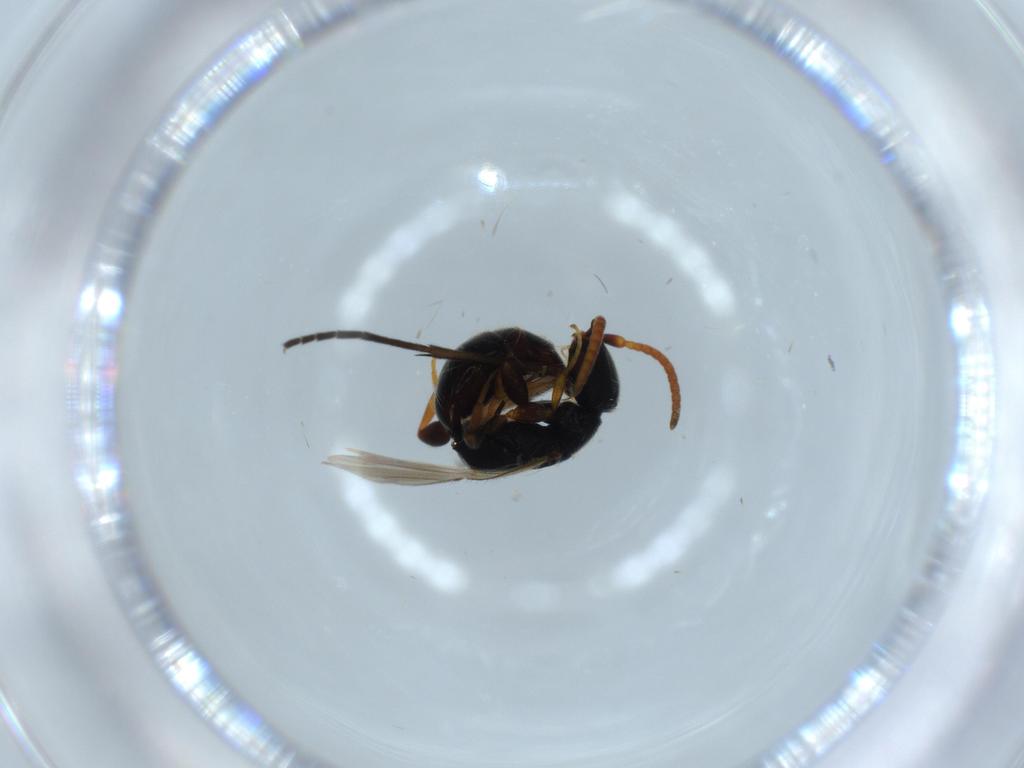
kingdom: Animalia
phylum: Arthropoda
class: Insecta
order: Hymenoptera
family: Bethylidae
